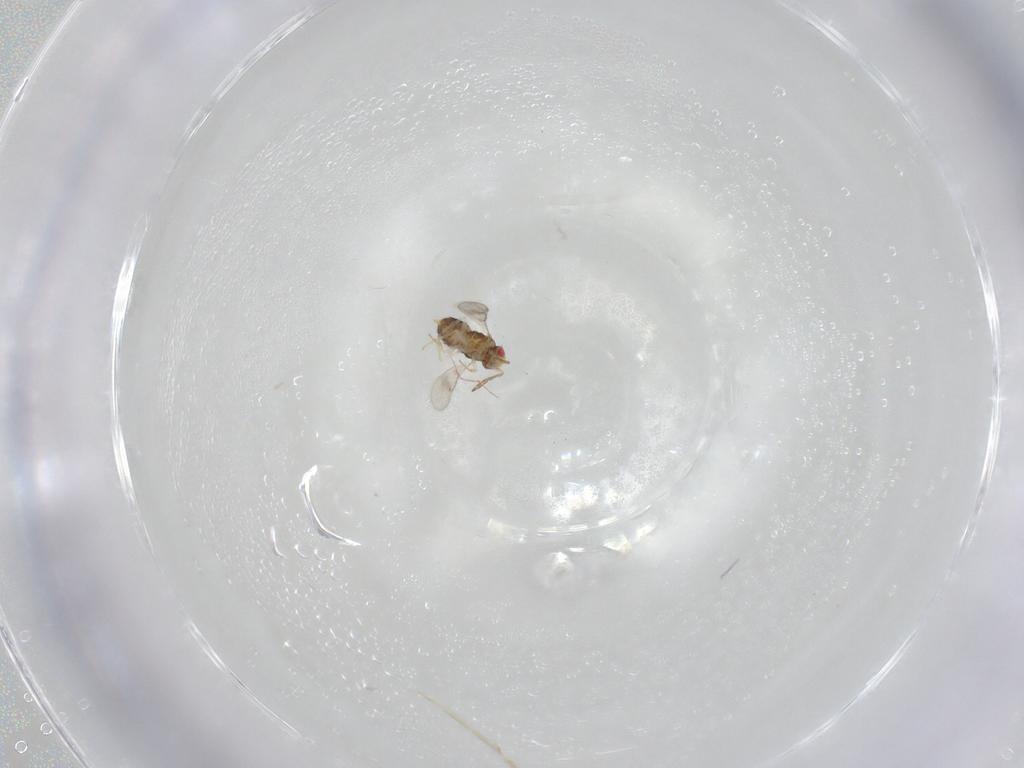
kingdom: Animalia
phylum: Arthropoda
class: Insecta
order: Hymenoptera
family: Aphelinidae
